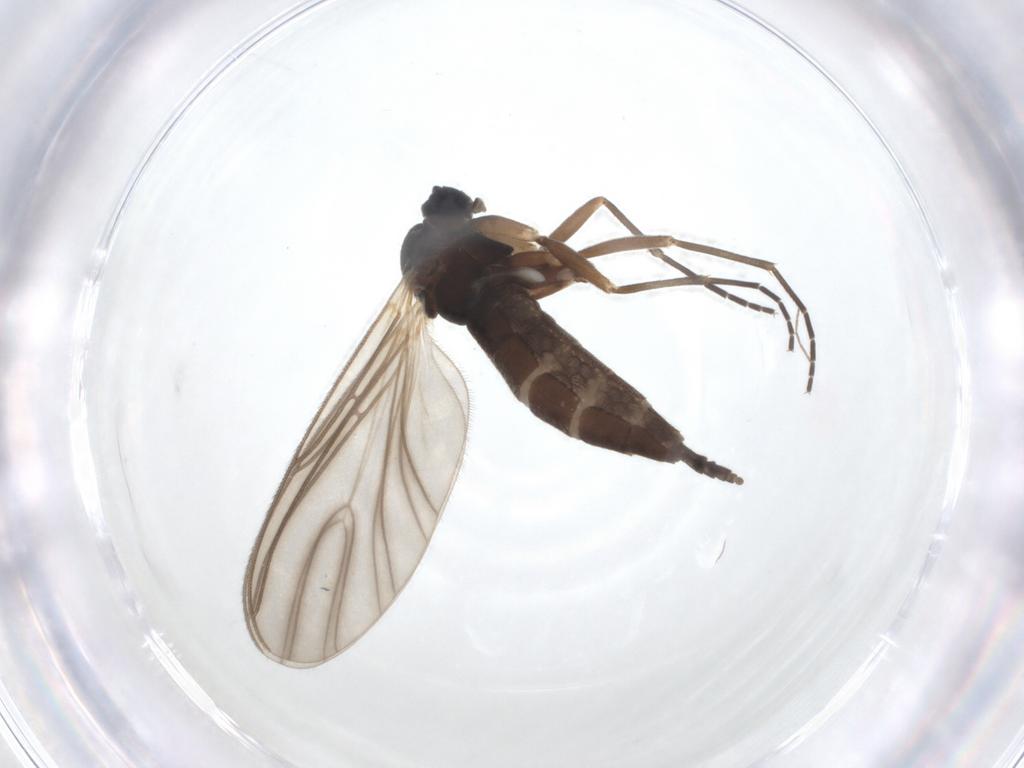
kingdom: Animalia
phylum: Arthropoda
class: Insecta
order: Diptera
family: Sciaridae
